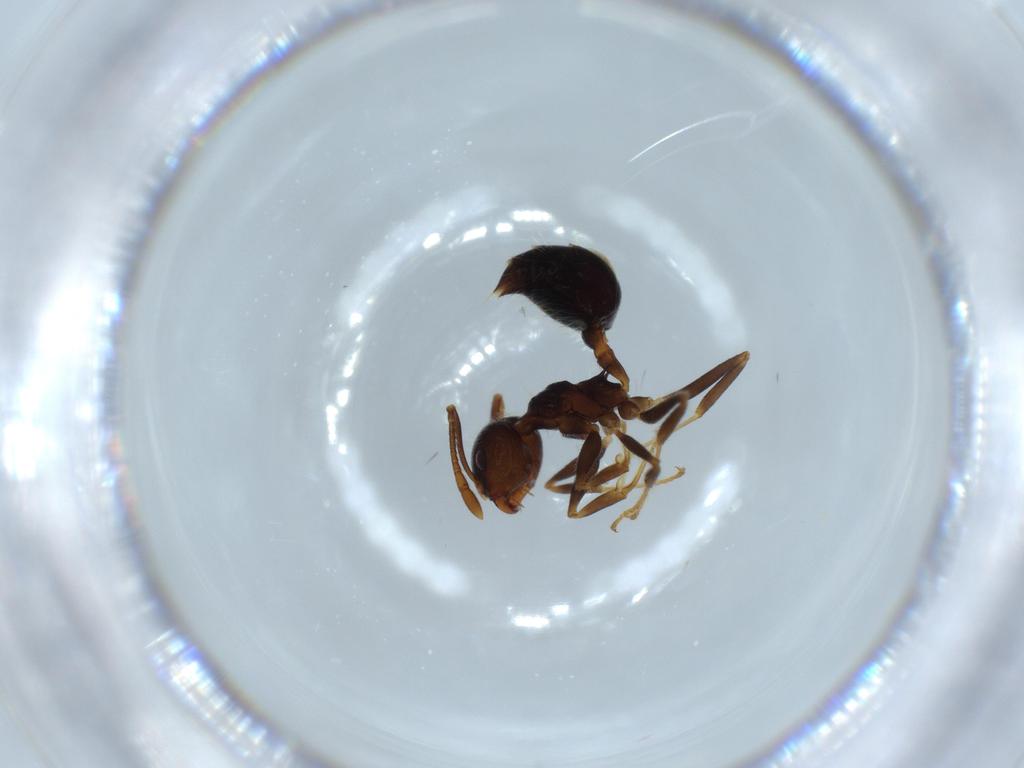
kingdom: Animalia
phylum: Arthropoda
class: Insecta
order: Hymenoptera
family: Formicidae
